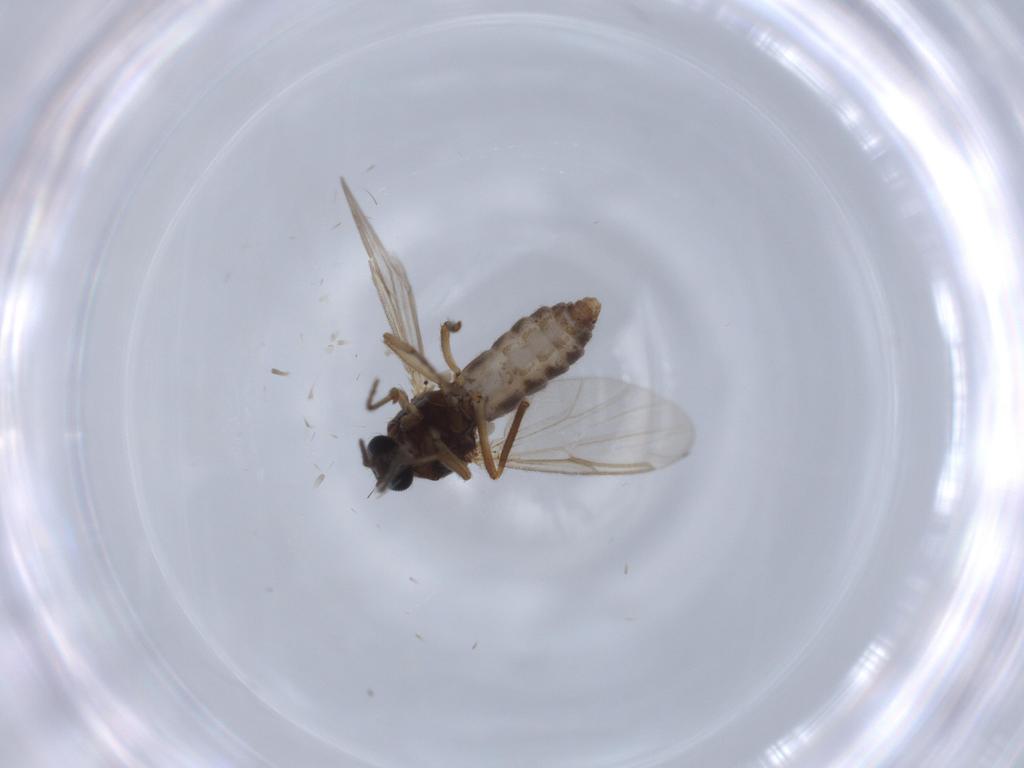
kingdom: Animalia
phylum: Arthropoda
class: Insecta
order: Diptera
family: Ceratopogonidae
